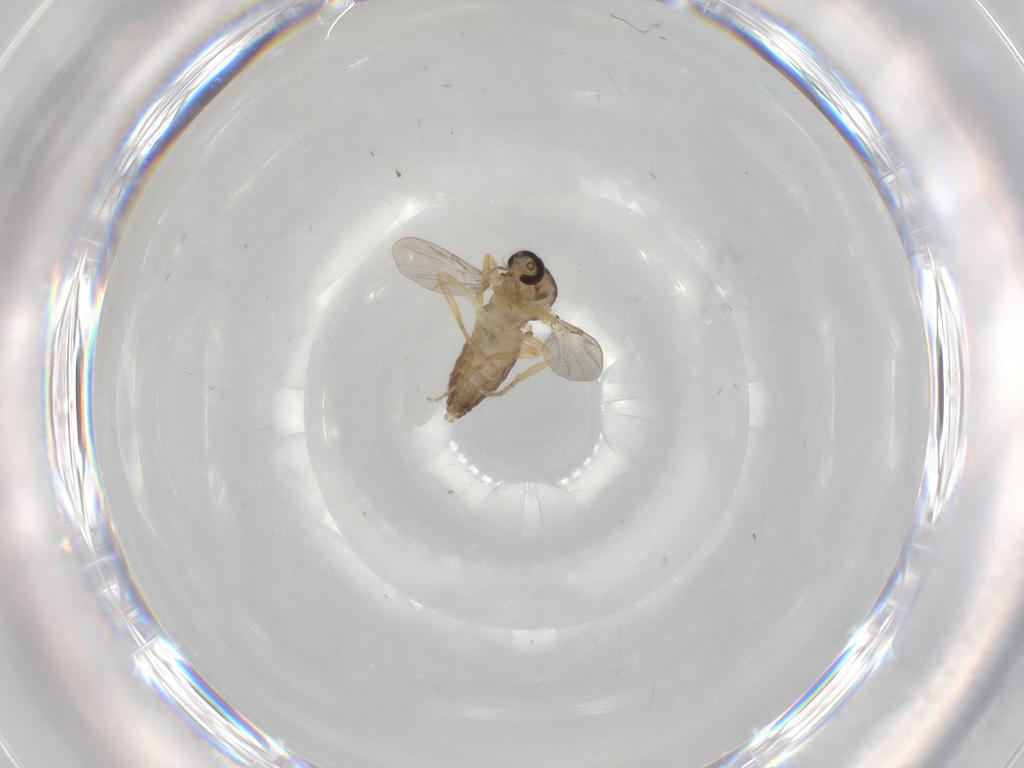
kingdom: Animalia
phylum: Arthropoda
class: Insecta
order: Diptera
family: Ceratopogonidae
